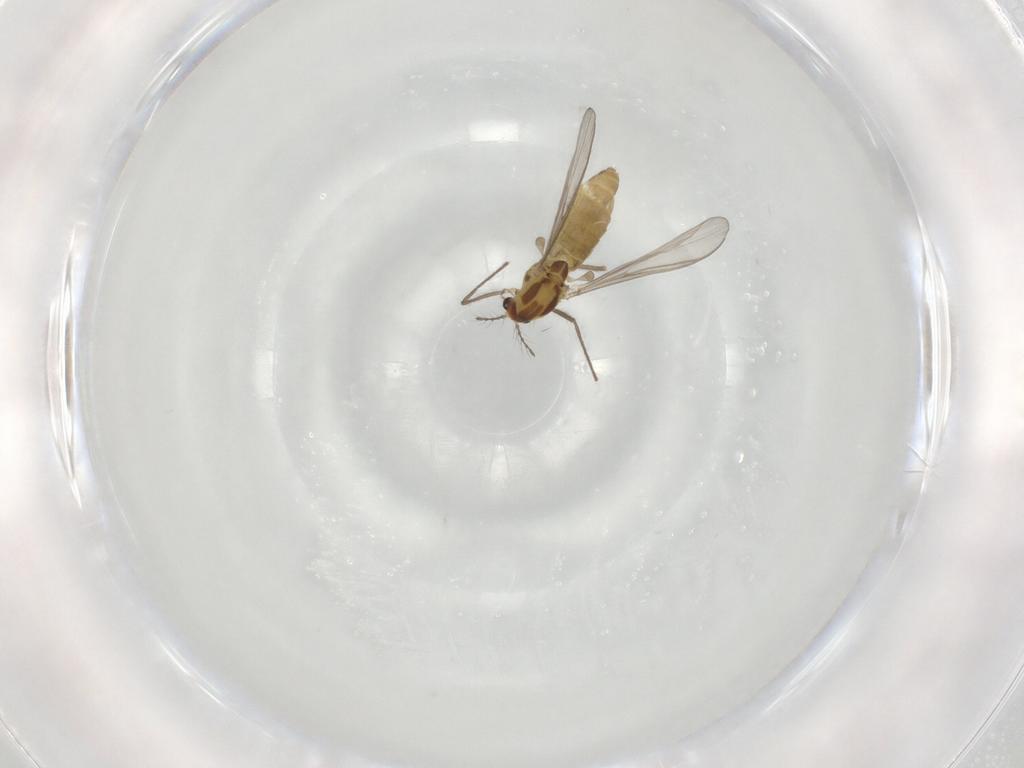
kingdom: Animalia
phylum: Arthropoda
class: Insecta
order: Diptera
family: Chironomidae
